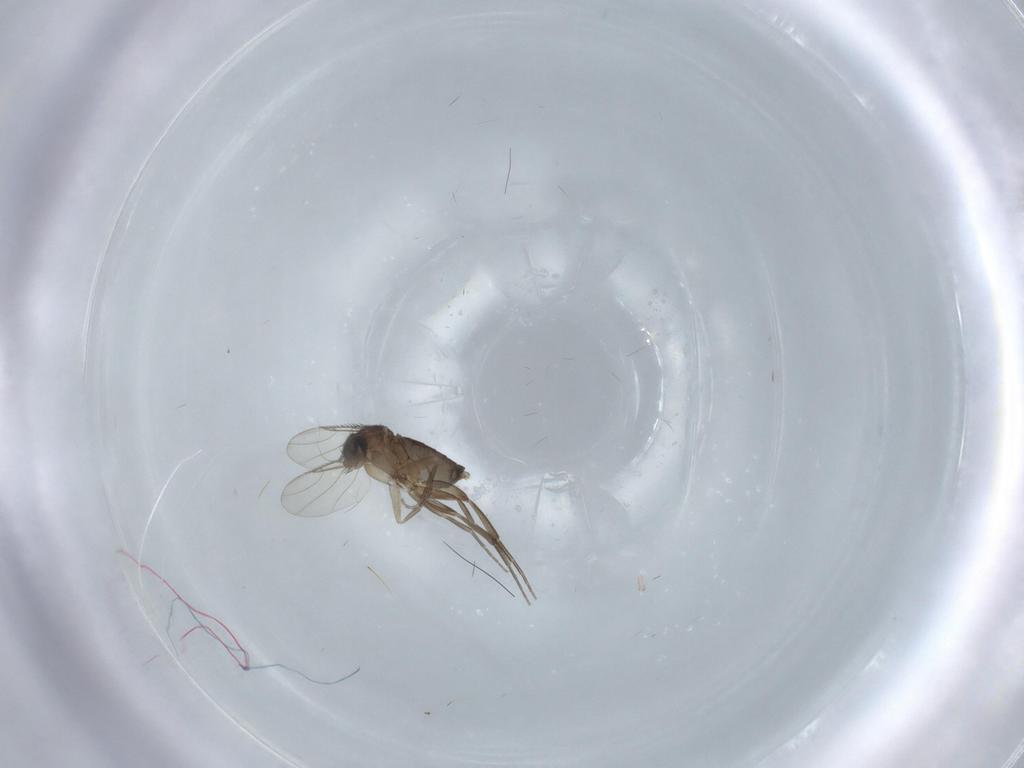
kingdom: Animalia
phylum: Arthropoda
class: Insecta
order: Diptera
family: Phoridae
